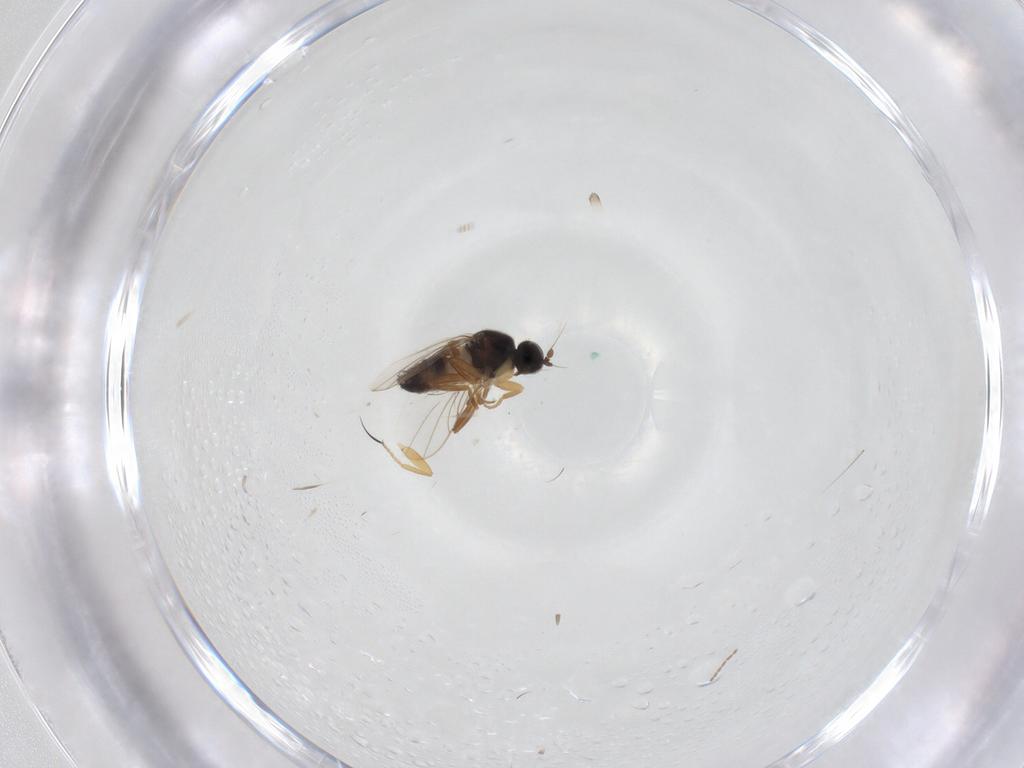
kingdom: Animalia
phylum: Arthropoda
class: Insecta
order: Diptera
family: Hybotidae
